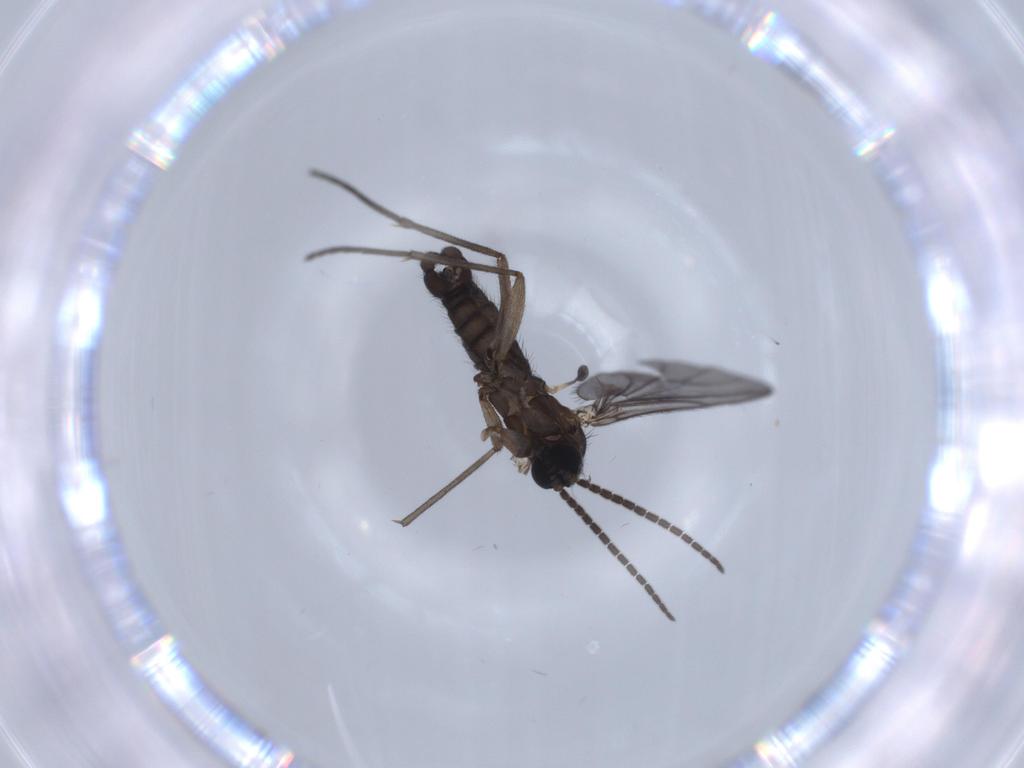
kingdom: Animalia
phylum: Arthropoda
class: Insecta
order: Diptera
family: Sciaridae
